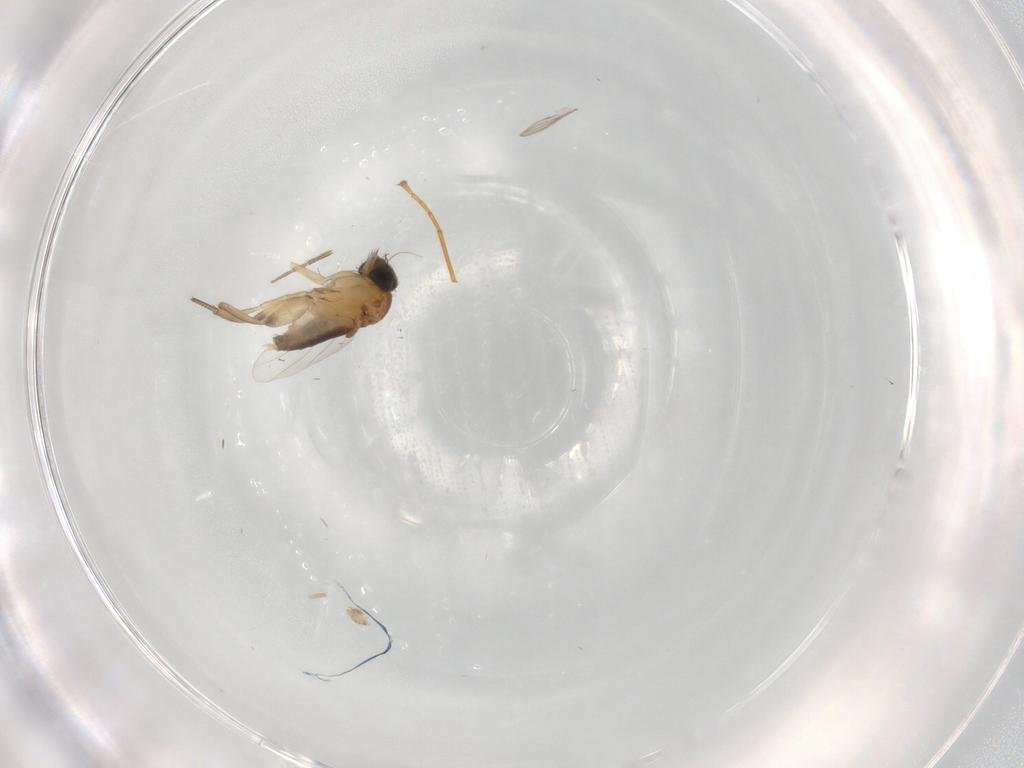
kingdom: Animalia
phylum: Arthropoda
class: Insecta
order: Diptera
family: Phoridae
